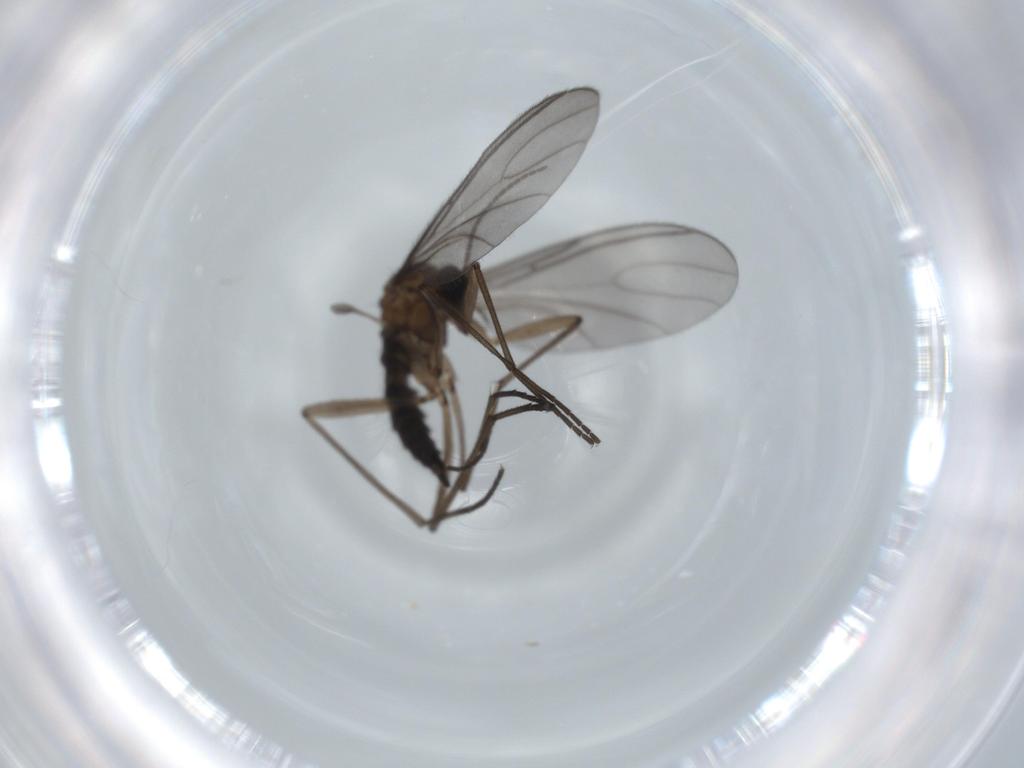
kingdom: Animalia
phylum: Arthropoda
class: Insecta
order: Diptera
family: Sciaridae
